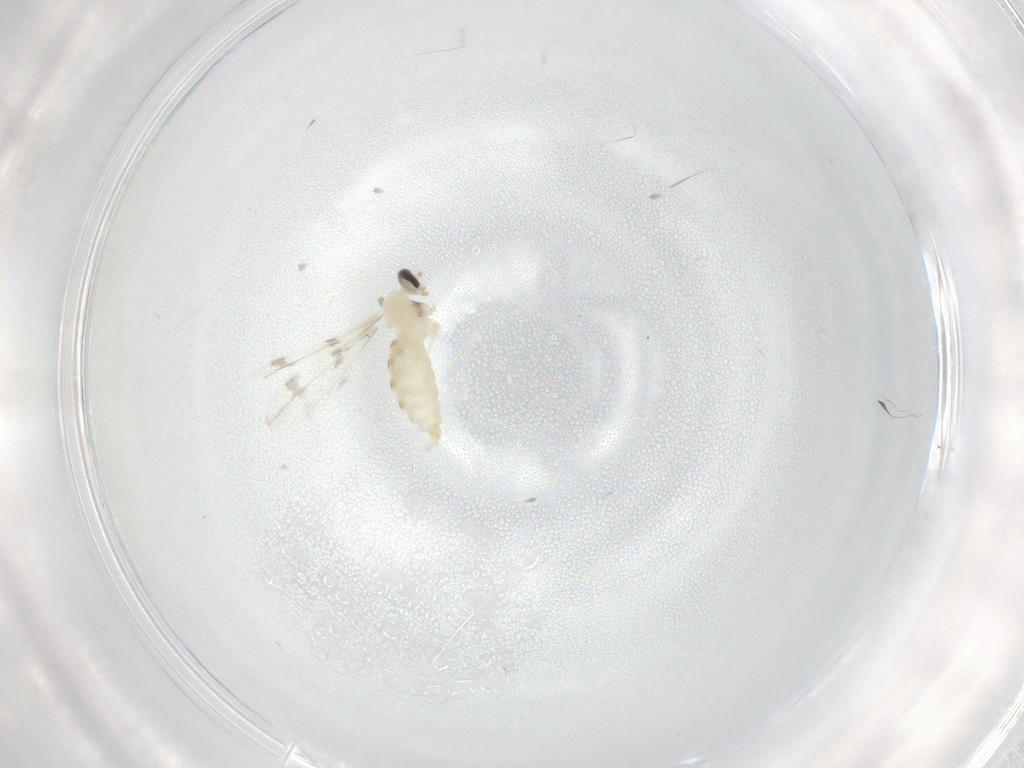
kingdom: Animalia
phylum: Arthropoda
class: Insecta
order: Diptera
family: Cecidomyiidae
